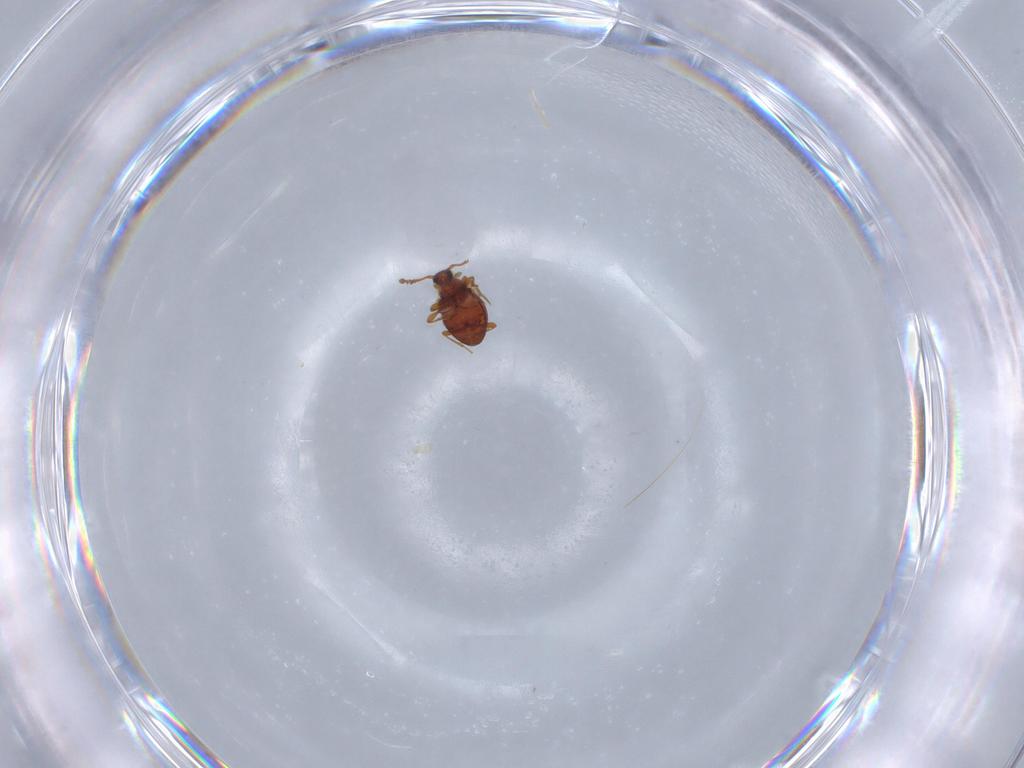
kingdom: Animalia
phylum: Arthropoda
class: Insecta
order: Coleoptera
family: Staphylinidae
